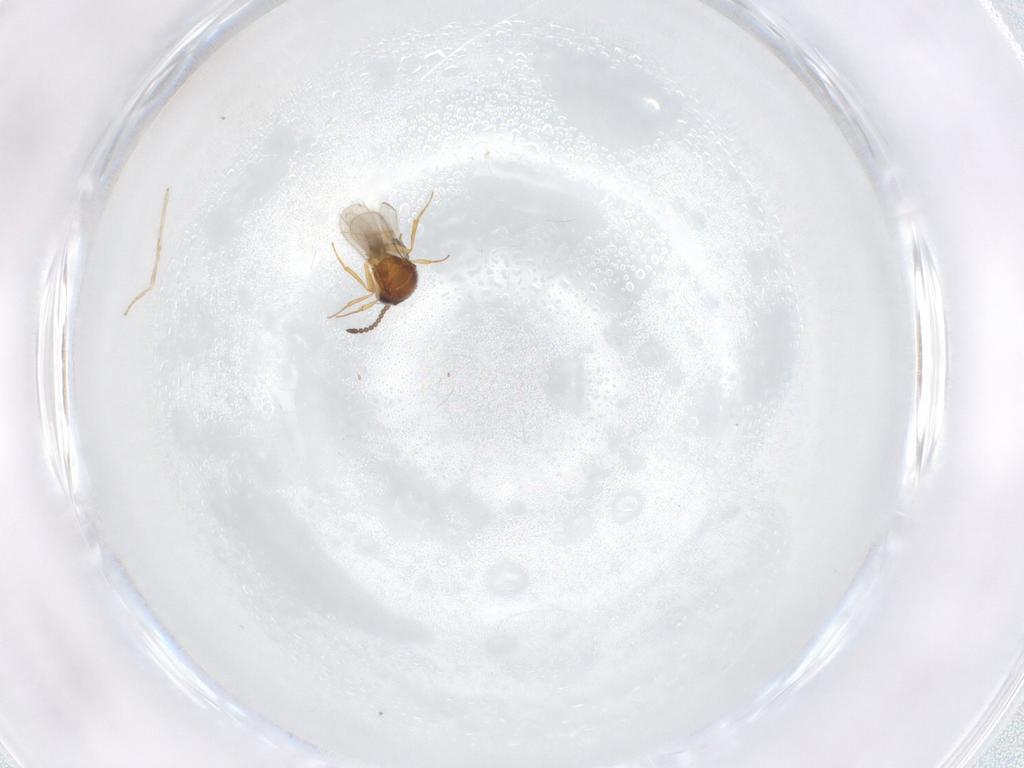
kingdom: Animalia
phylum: Arthropoda
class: Insecta
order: Hymenoptera
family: Scelionidae
